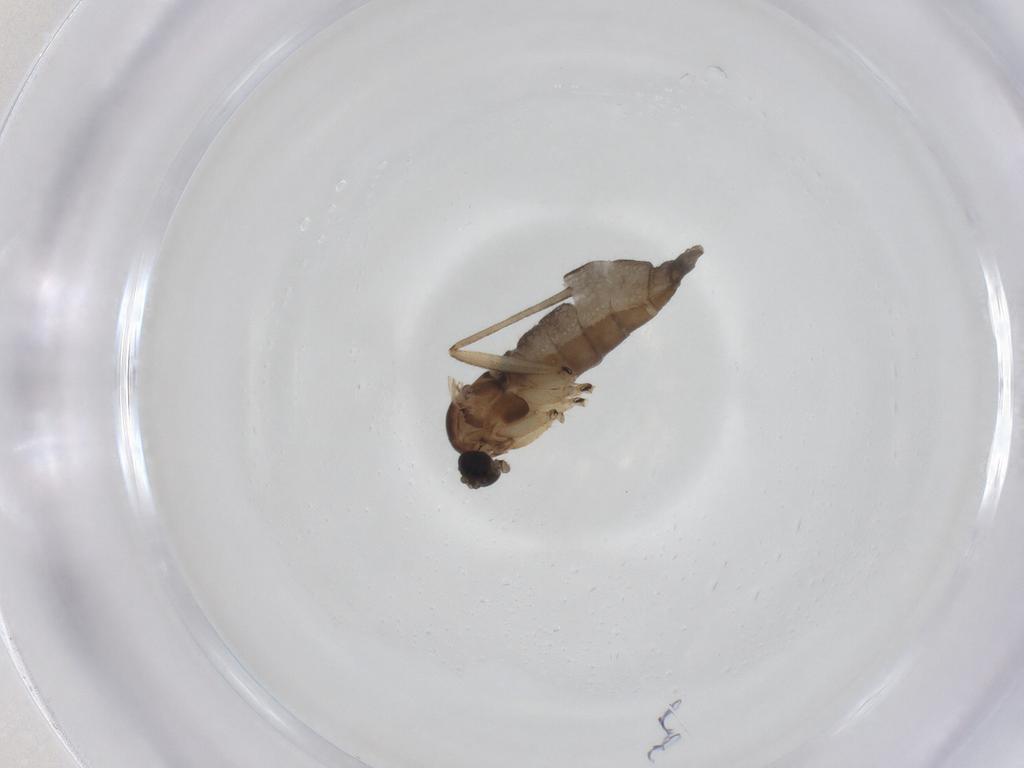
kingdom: Animalia
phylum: Arthropoda
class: Insecta
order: Diptera
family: Sciaridae
